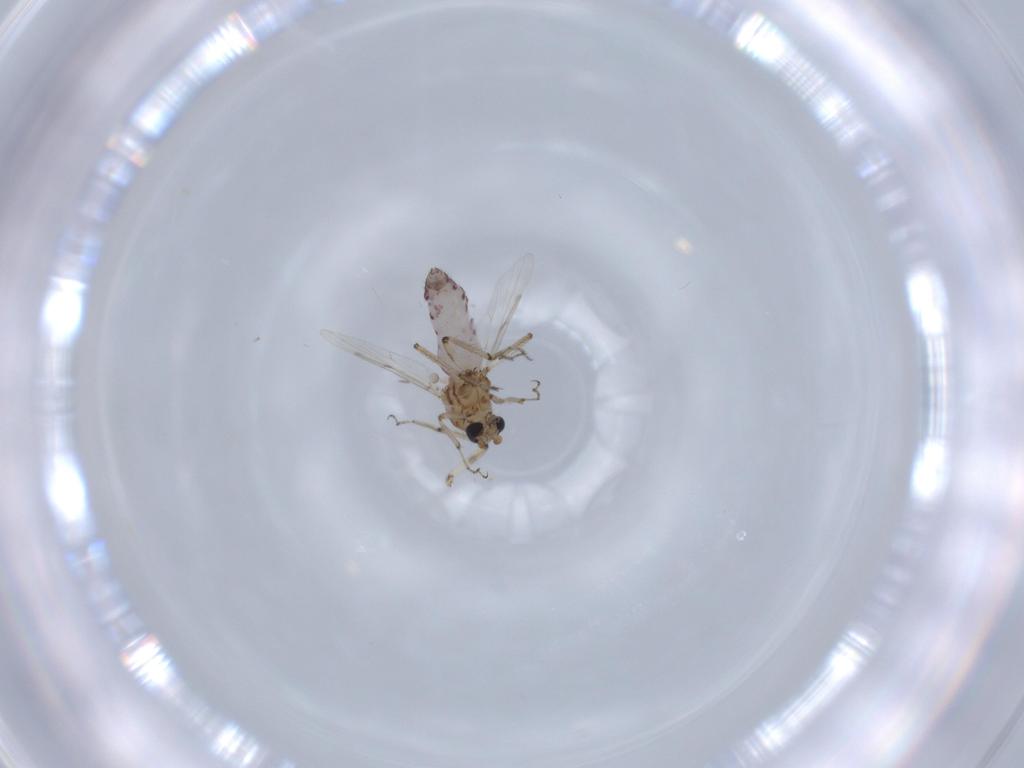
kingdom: Animalia
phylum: Arthropoda
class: Insecta
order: Diptera
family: Ceratopogonidae
